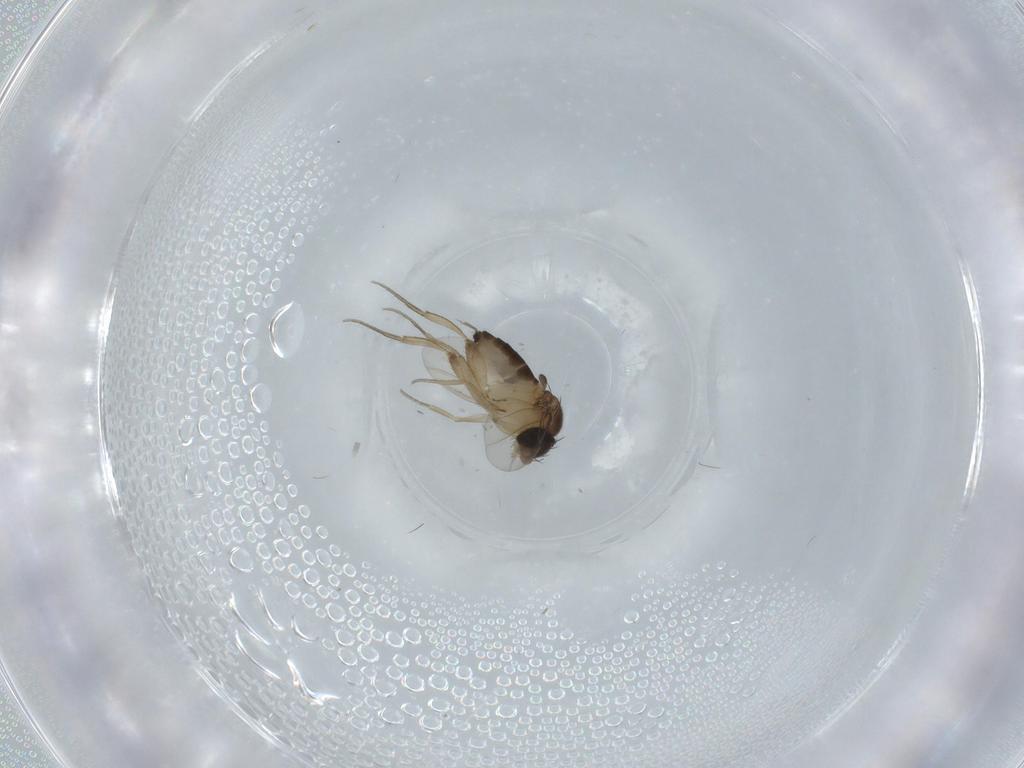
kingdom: Animalia
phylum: Arthropoda
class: Insecta
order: Diptera
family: Phoridae
